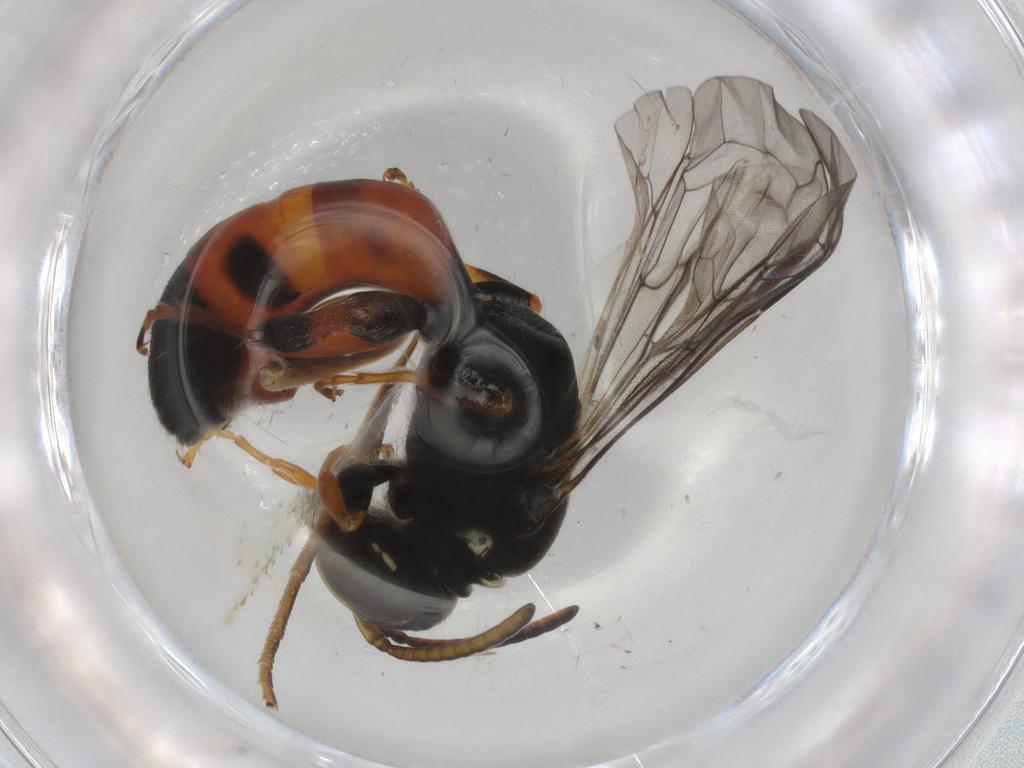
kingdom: Animalia
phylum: Arthropoda
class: Insecta
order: Hymenoptera
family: Colletidae
